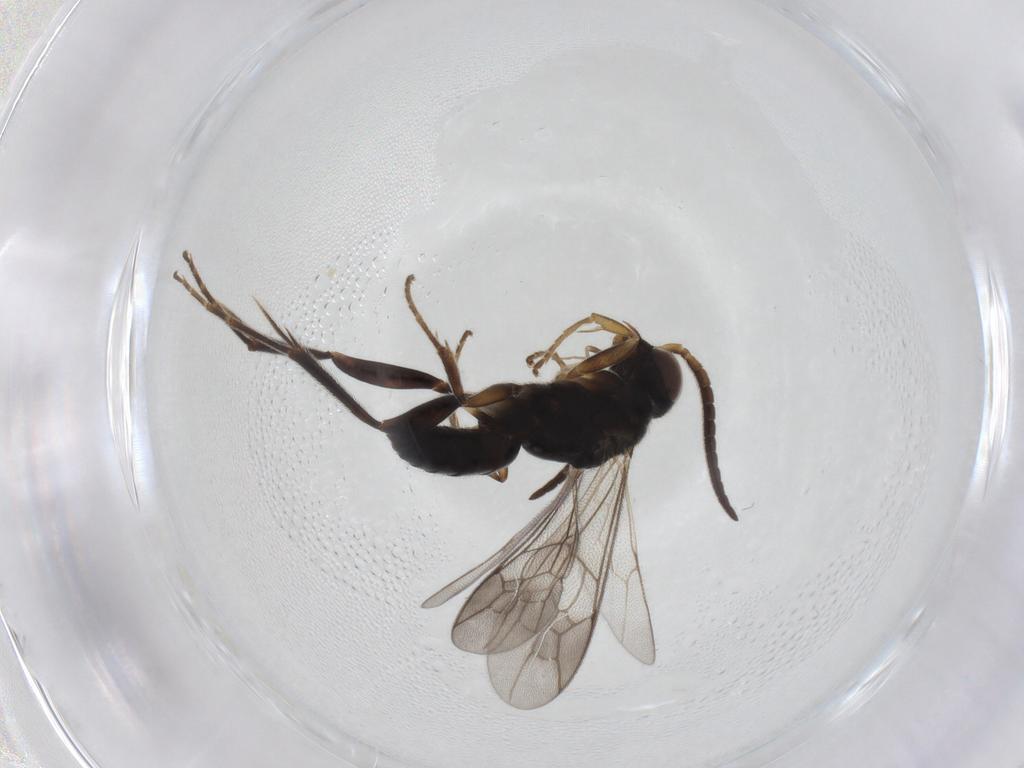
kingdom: Animalia
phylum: Arthropoda
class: Insecta
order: Hymenoptera
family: Pompilidae
